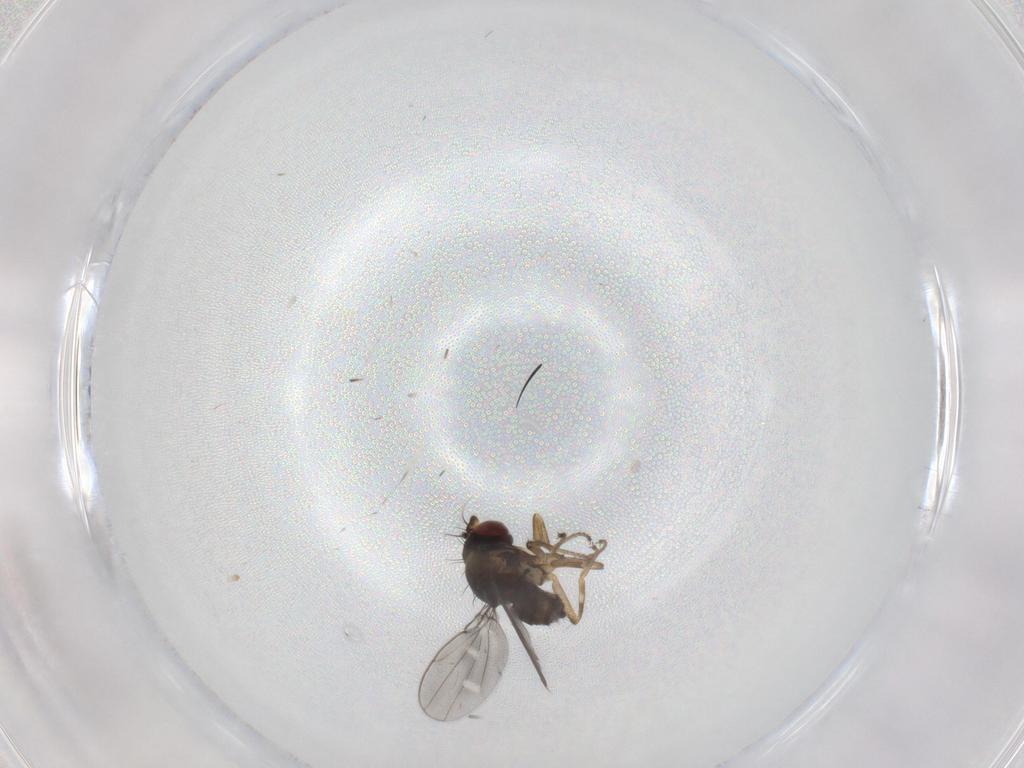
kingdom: Animalia
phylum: Arthropoda
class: Insecta
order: Diptera
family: Ephydridae
